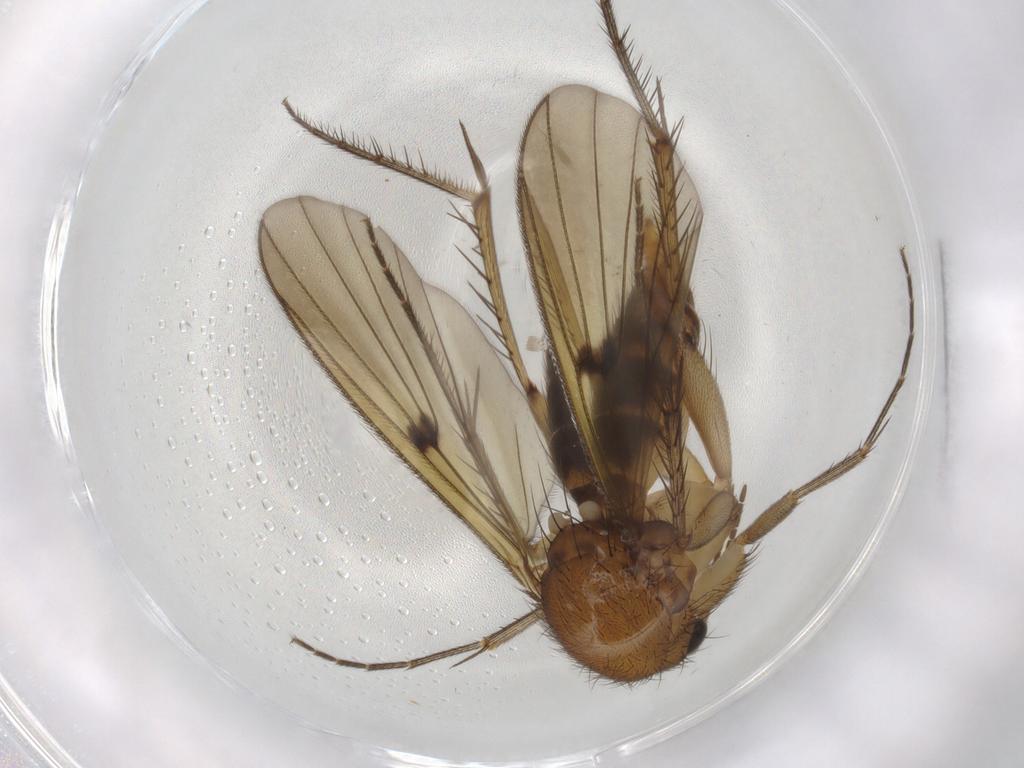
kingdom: Animalia
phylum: Arthropoda
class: Insecta
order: Diptera
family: Mycetophilidae
